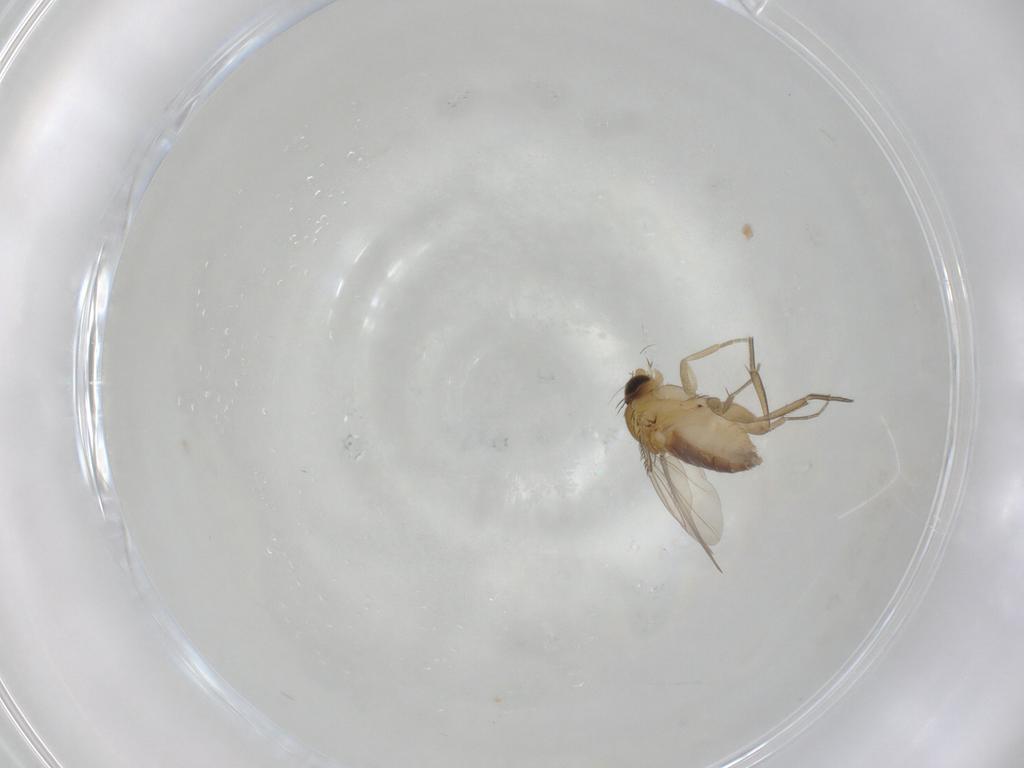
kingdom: Animalia
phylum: Arthropoda
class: Insecta
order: Diptera
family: Phoridae
